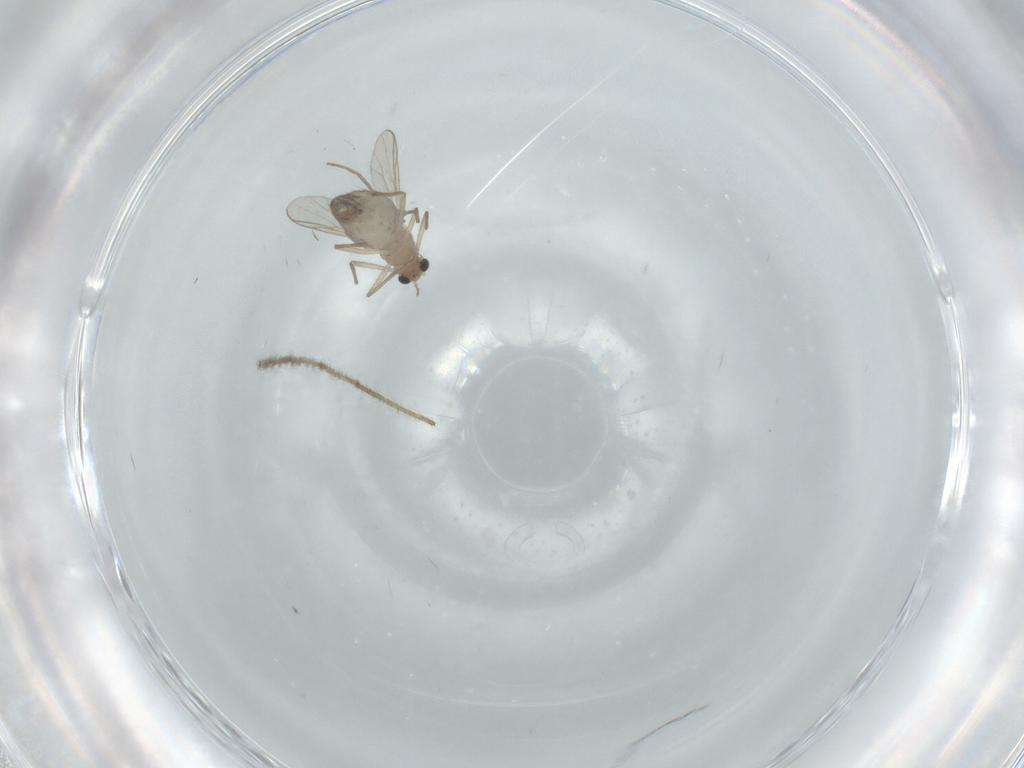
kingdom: Animalia
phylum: Arthropoda
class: Insecta
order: Diptera
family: Chironomidae
